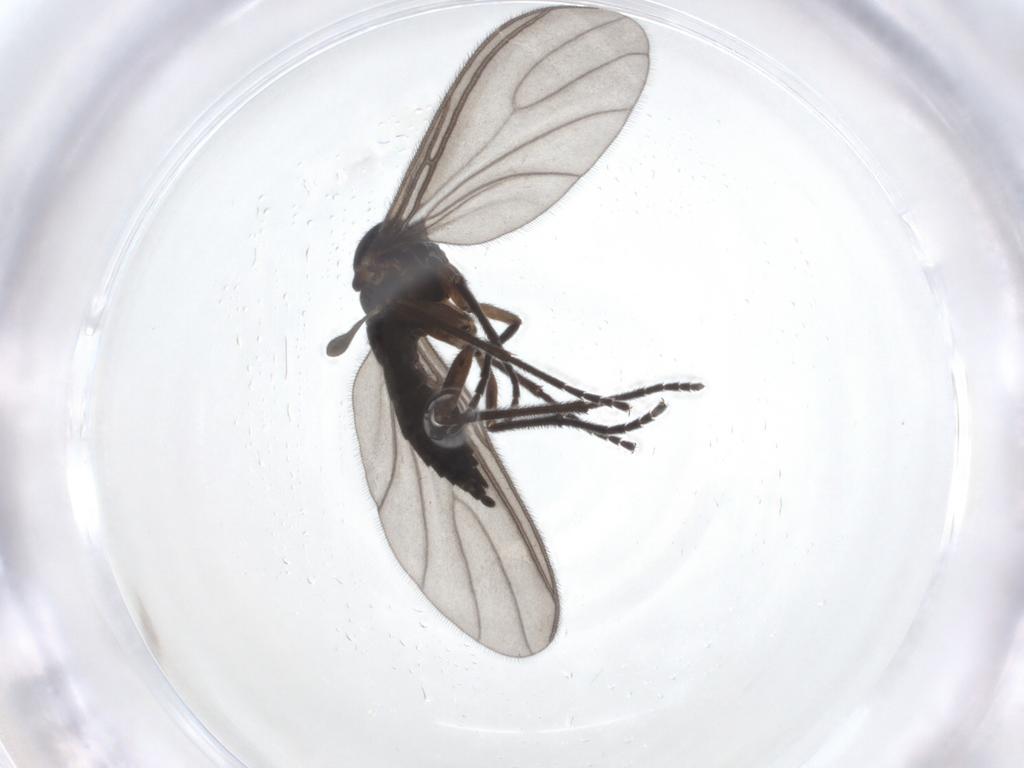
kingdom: Animalia
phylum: Arthropoda
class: Insecta
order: Diptera
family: Sciaridae
